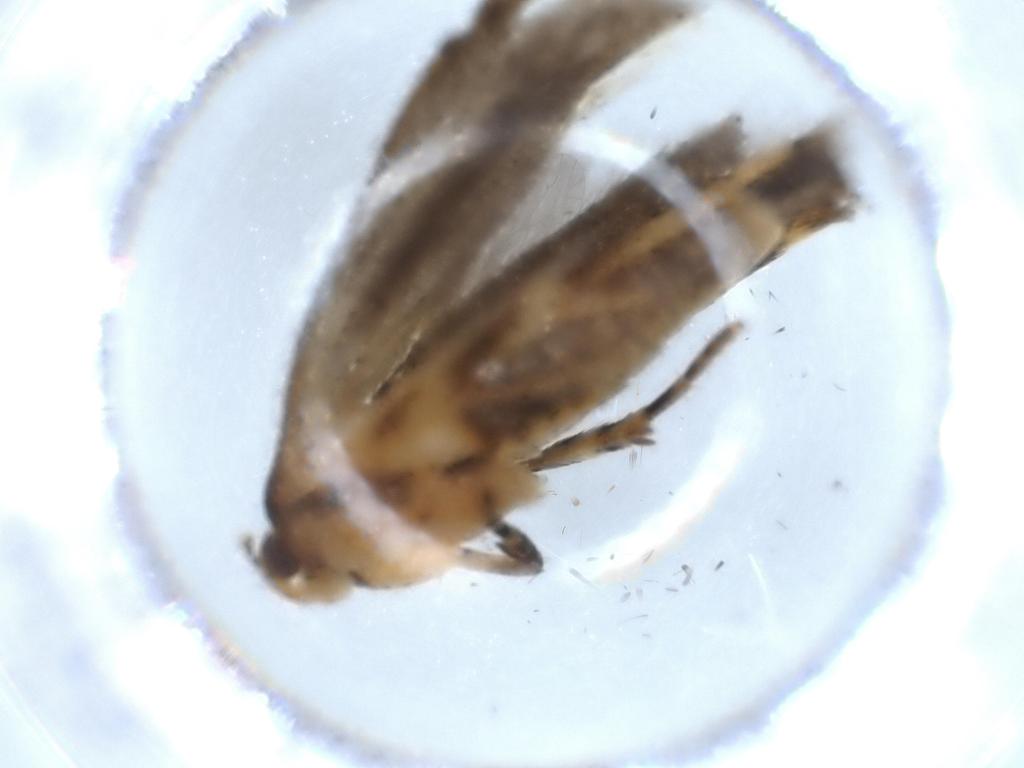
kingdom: Animalia
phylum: Arthropoda
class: Insecta
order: Lepidoptera
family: Gelechiidae
